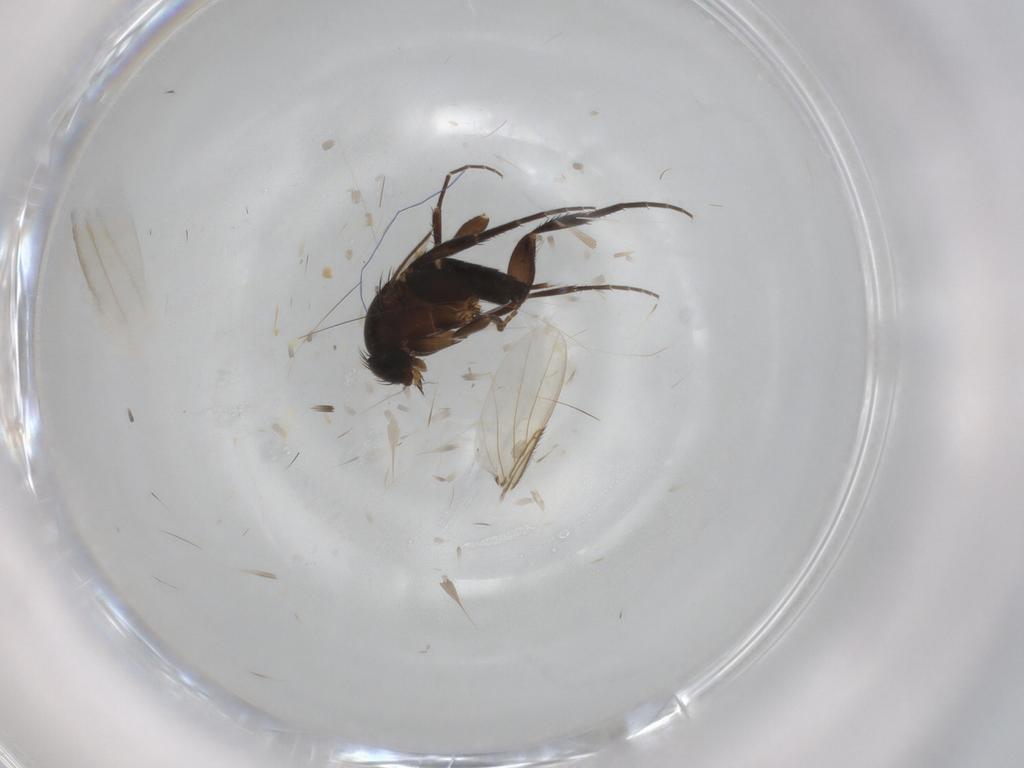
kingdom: Animalia
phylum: Arthropoda
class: Insecta
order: Diptera
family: Phoridae
